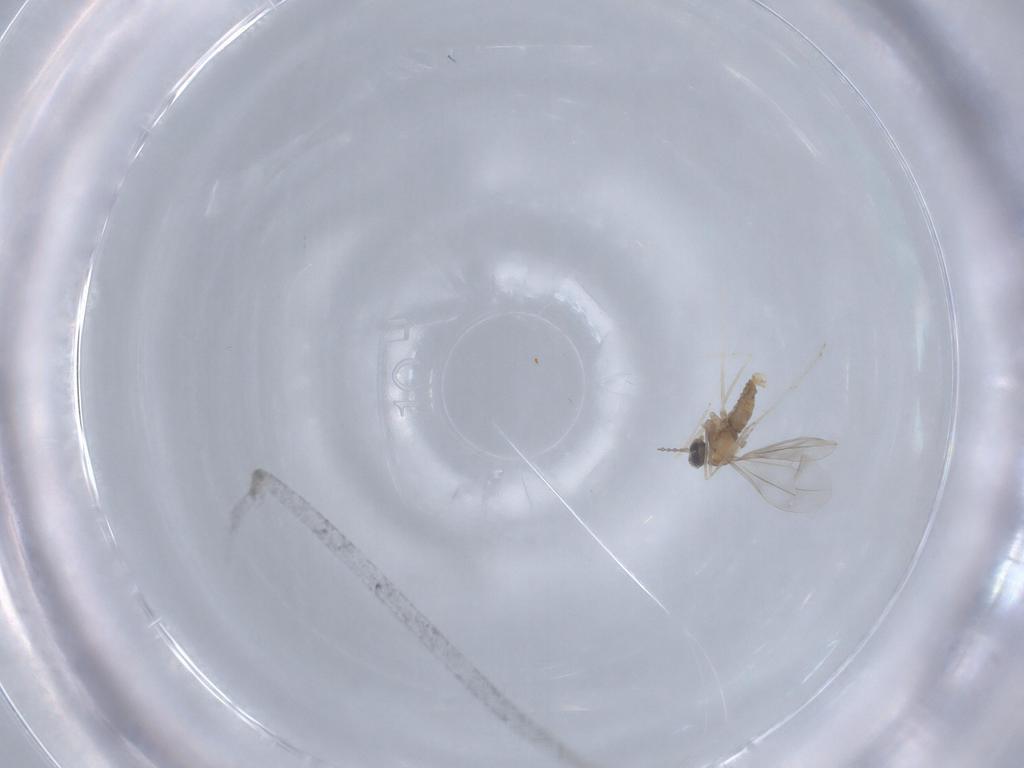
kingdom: Animalia
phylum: Arthropoda
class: Insecta
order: Diptera
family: Cecidomyiidae
